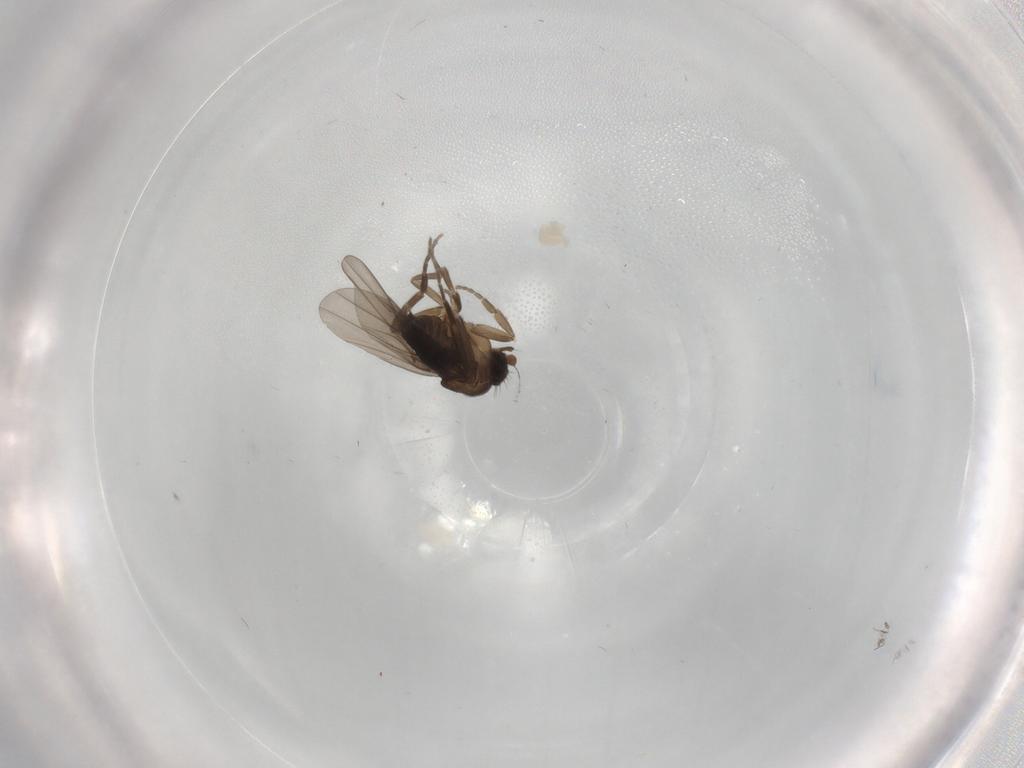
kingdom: Animalia
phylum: Arthropoda
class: Insecta
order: Diptera
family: Phoridae
